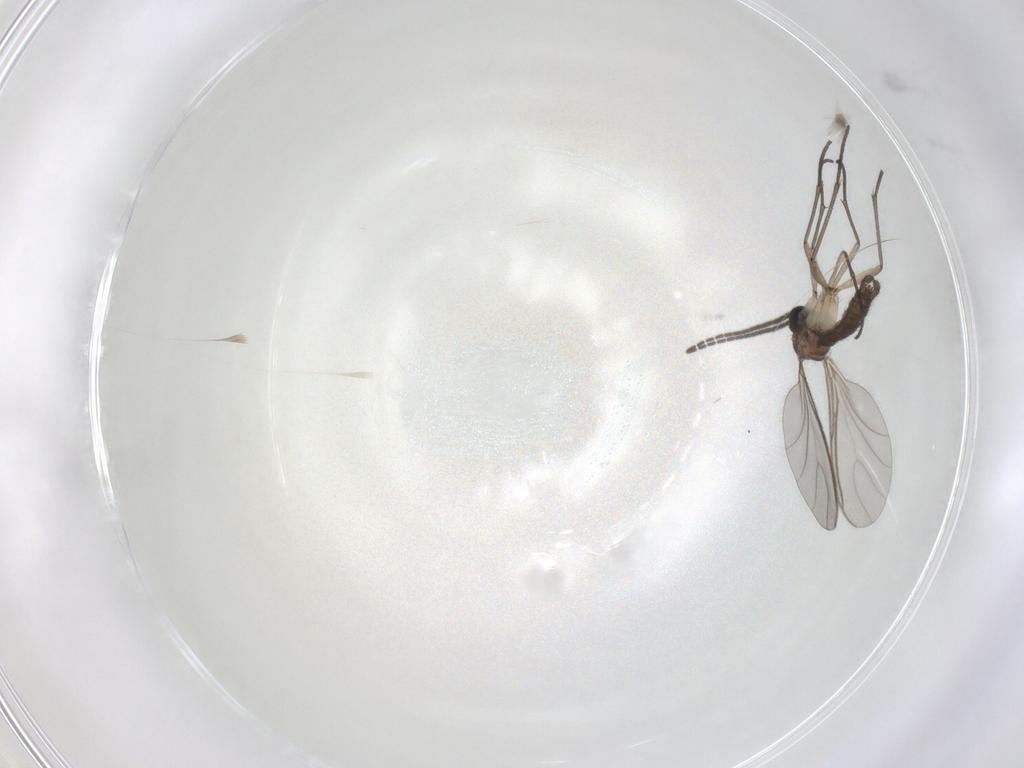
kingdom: Animalia
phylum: Arthropoda
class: Insecta
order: Diptera
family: Sciaridae
